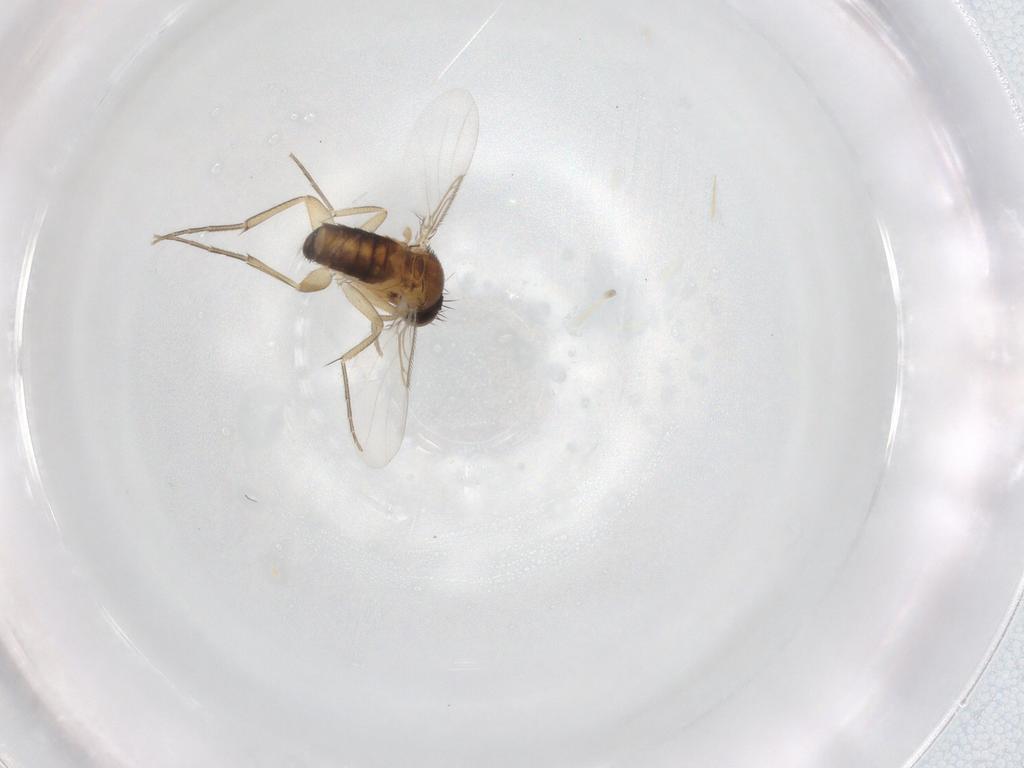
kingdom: Animalia
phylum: Arthropoda
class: Insecta
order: Diptera
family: Phoridae
